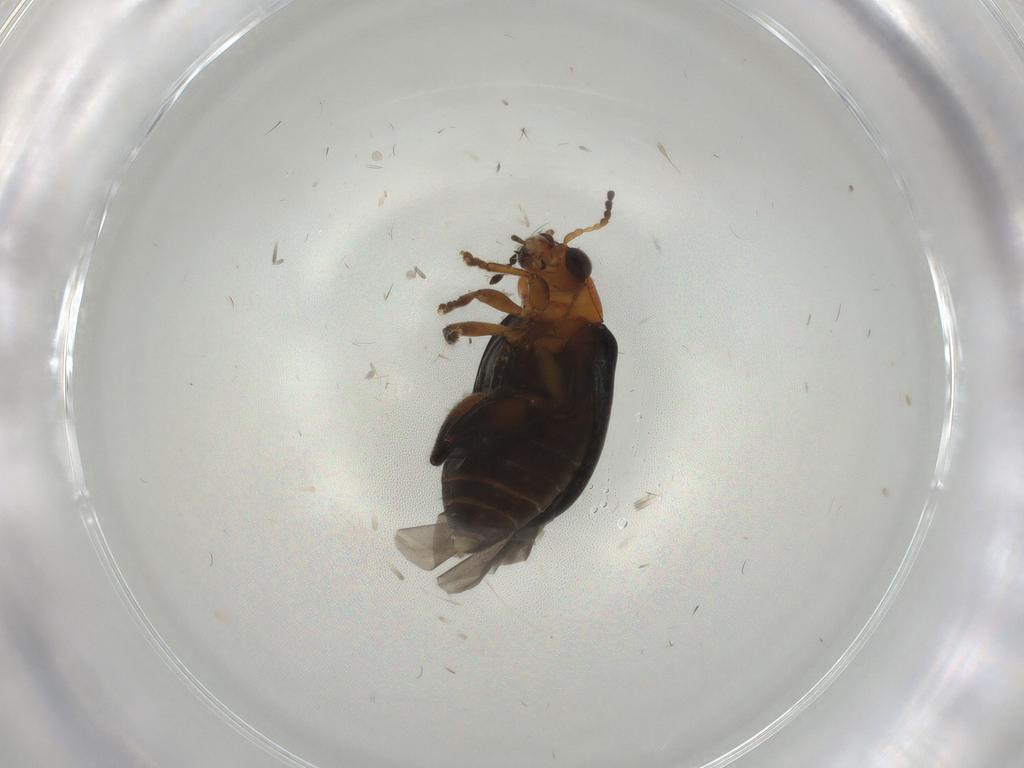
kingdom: Animalia
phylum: Arthropoda
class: Insecta
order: Coleoptera
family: Chrysomelidae
